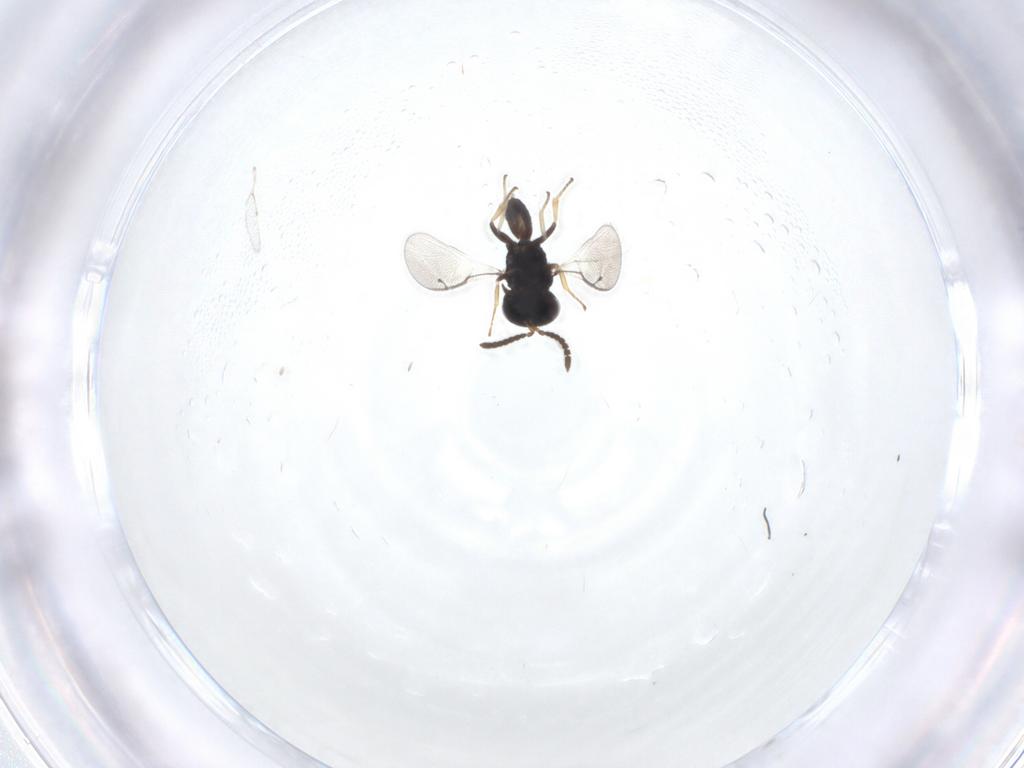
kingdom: Animalia
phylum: Arthropoda
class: Insecta
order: Hymenoptera
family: Pteromalidae
